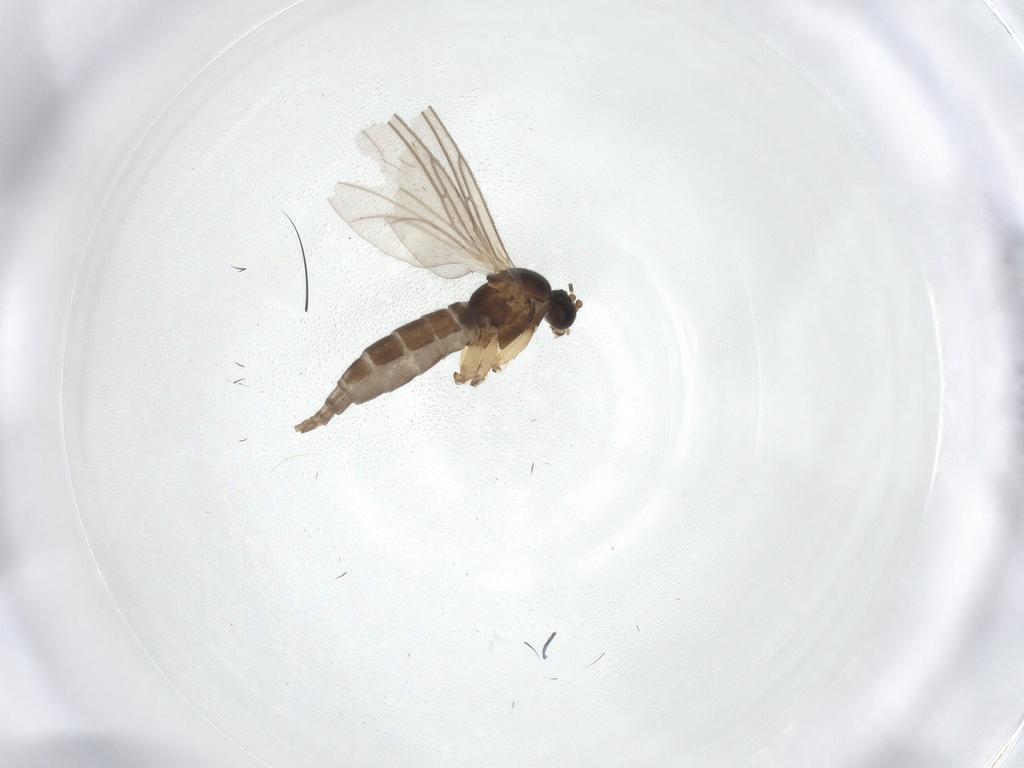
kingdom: Animalia
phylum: Arthropoda
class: Insecta
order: Diptera
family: Sciaridae
